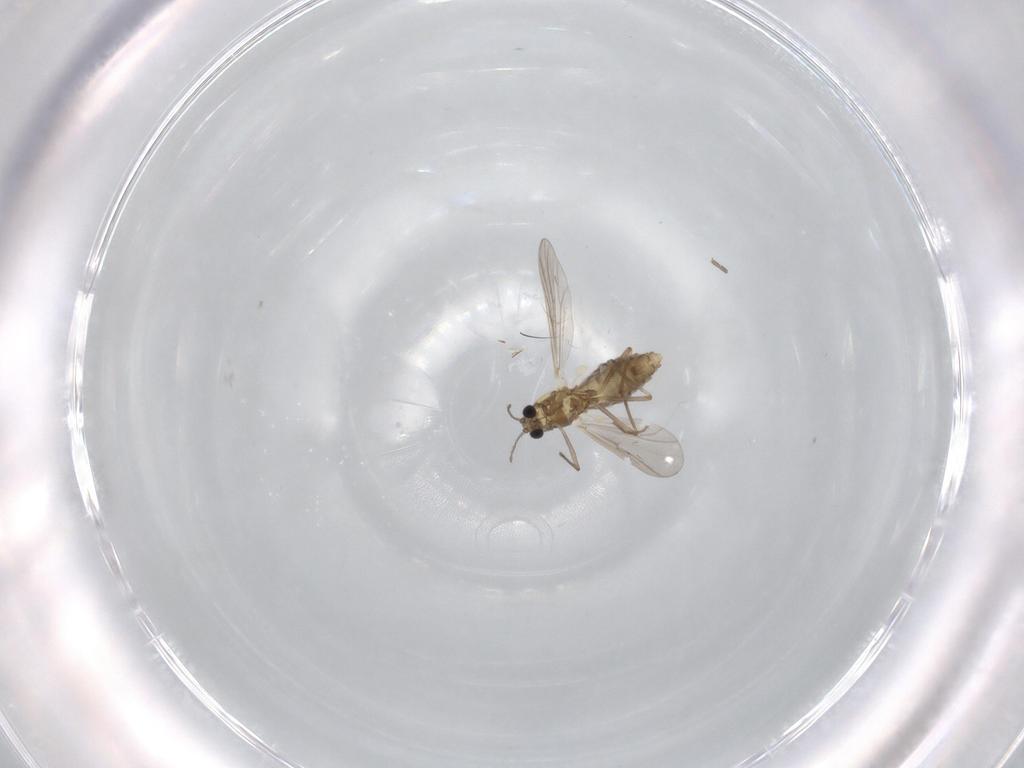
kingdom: Animalia
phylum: Arthropoda
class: Insecta
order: Diptera
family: Chironomidae
